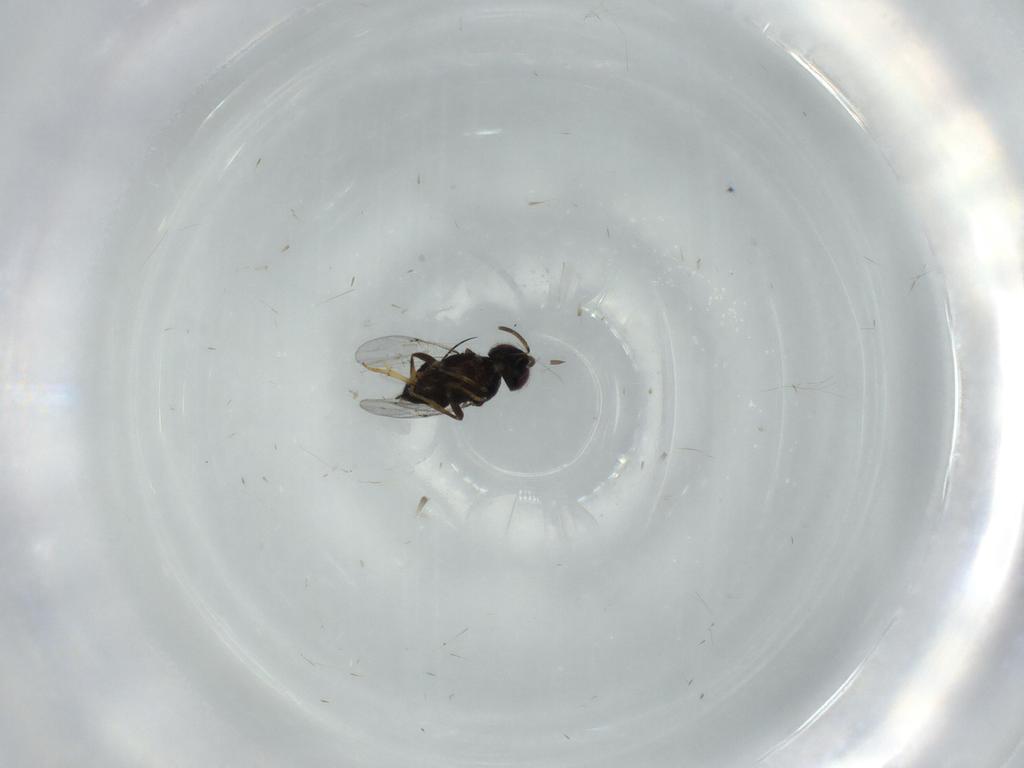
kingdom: Animalia
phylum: Arthropoda
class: Insecta
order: Hymenoptera
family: Encyrtidae
